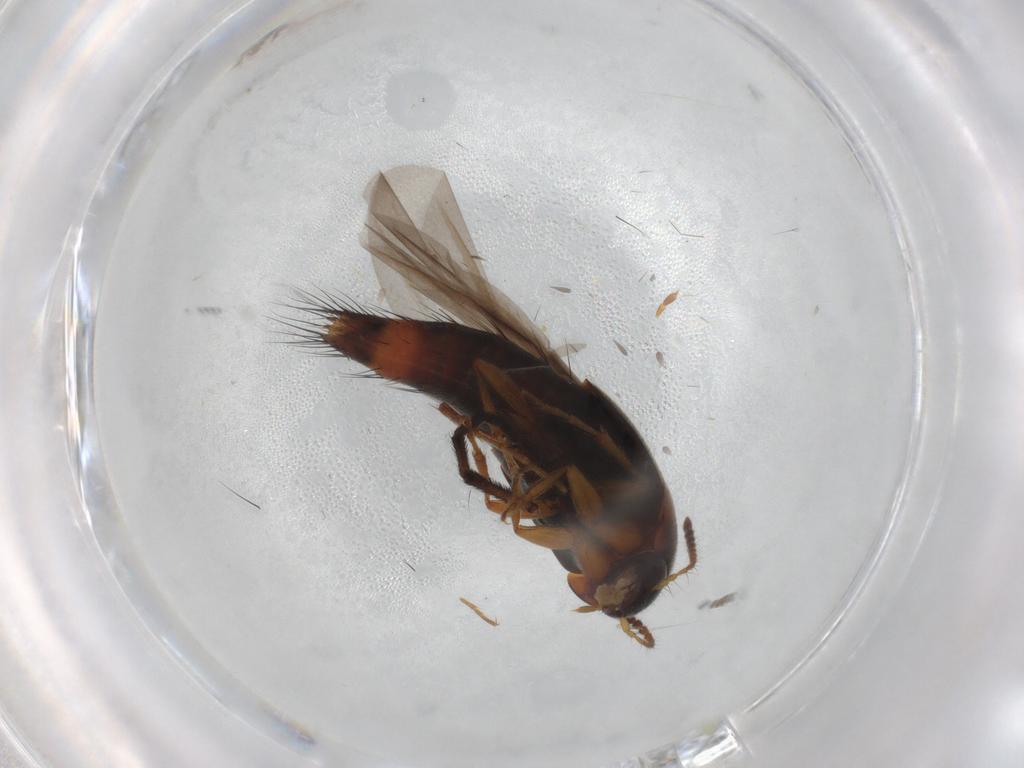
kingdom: Animalia
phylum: Arthropoda
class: Insecta
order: Coleoptera
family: Staphylinidae
